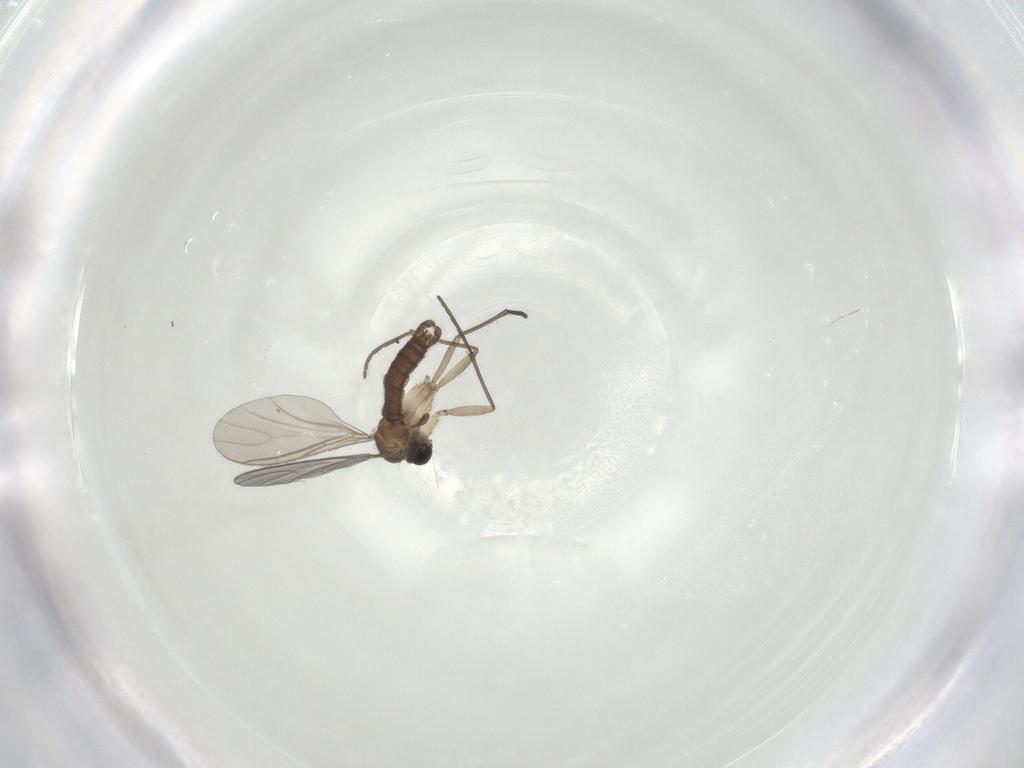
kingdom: Animalia
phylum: Arthropoda
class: Insecta
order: Diptera
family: Sciaridae
